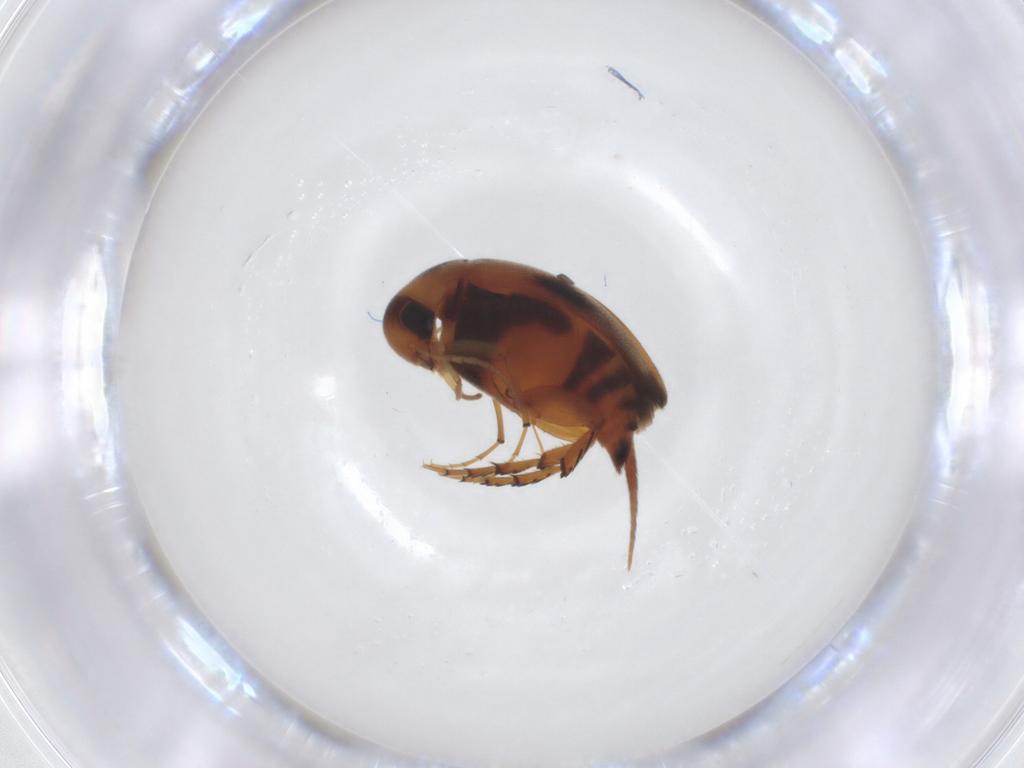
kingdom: Animalia
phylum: Arthropoda
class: Insecta
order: Coleoptera
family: Mordellidae
